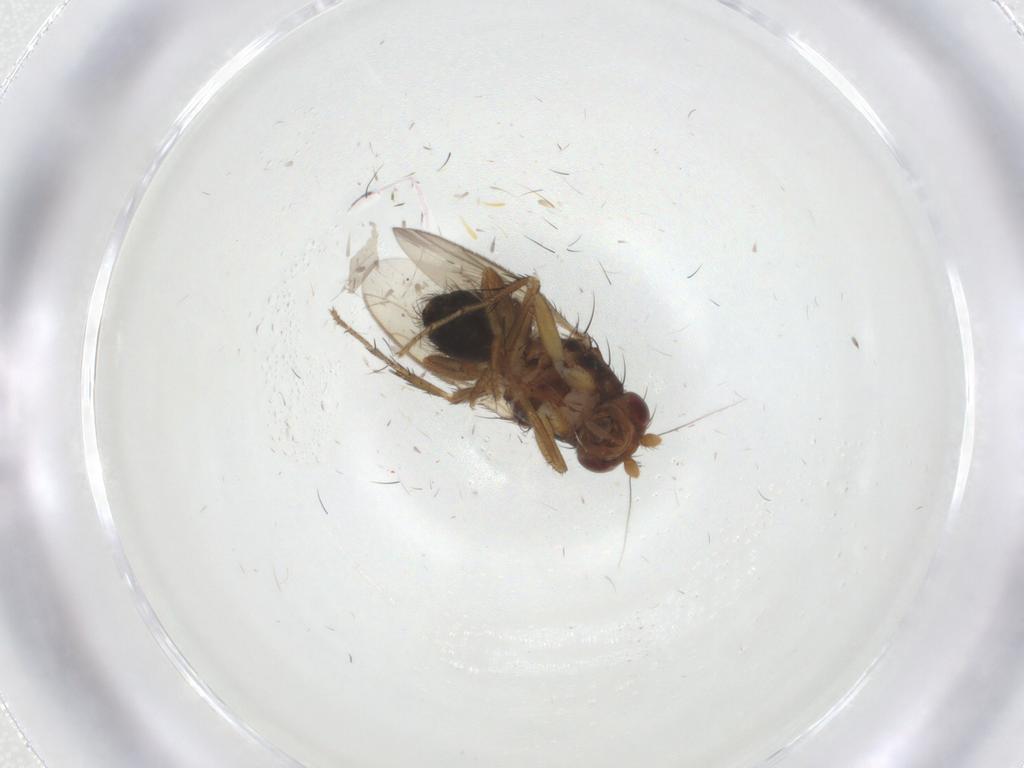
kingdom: Animalia
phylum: Arthropoda
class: Insecta
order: Diptera
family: Sphaeroceridae
